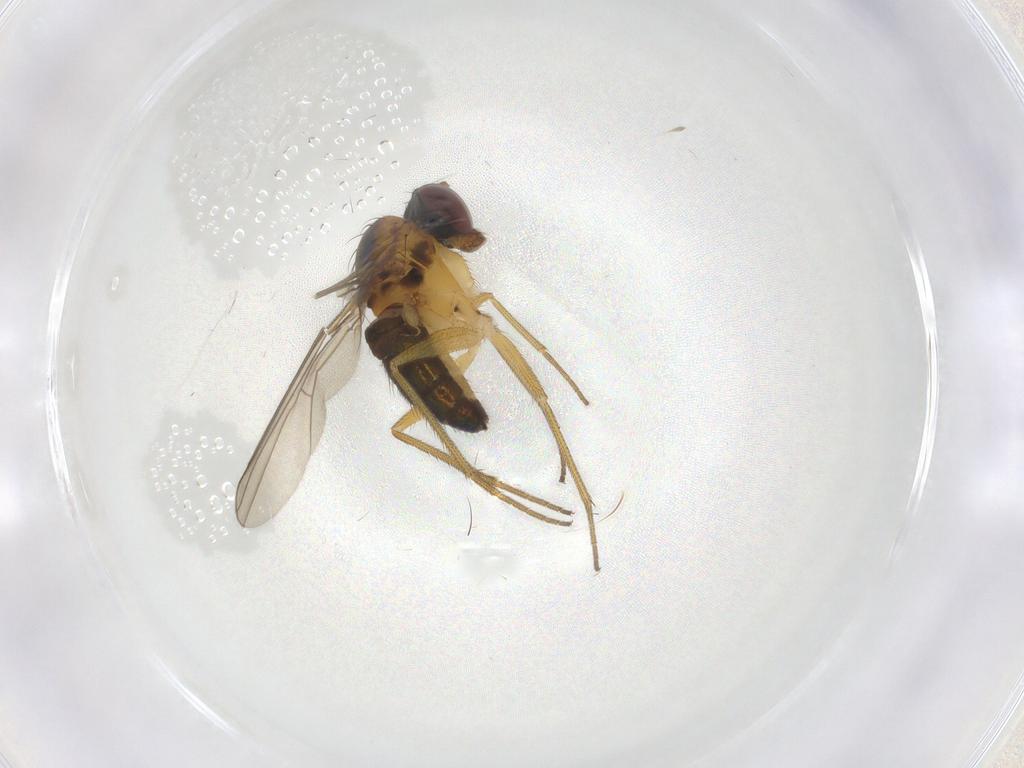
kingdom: Animalia
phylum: Arthropoda
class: Insecta
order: Diptera
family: Dolichopodidae
